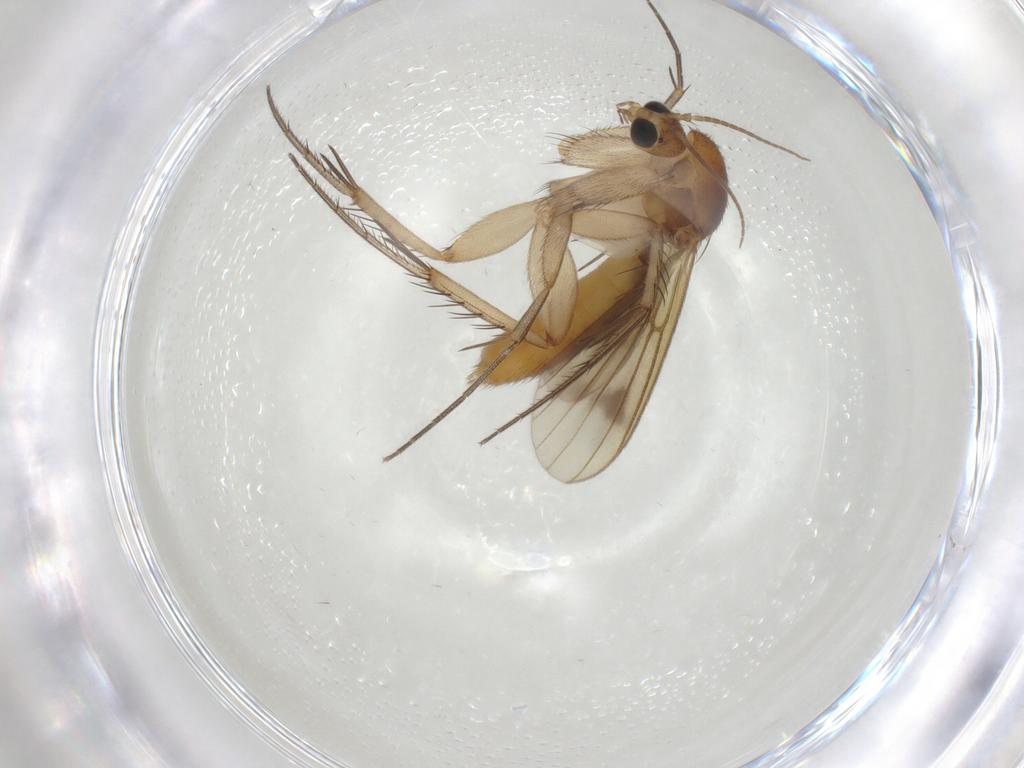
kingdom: Animalia
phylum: Arthropoda
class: Insecta
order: Diptera
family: Mycetophilidae
